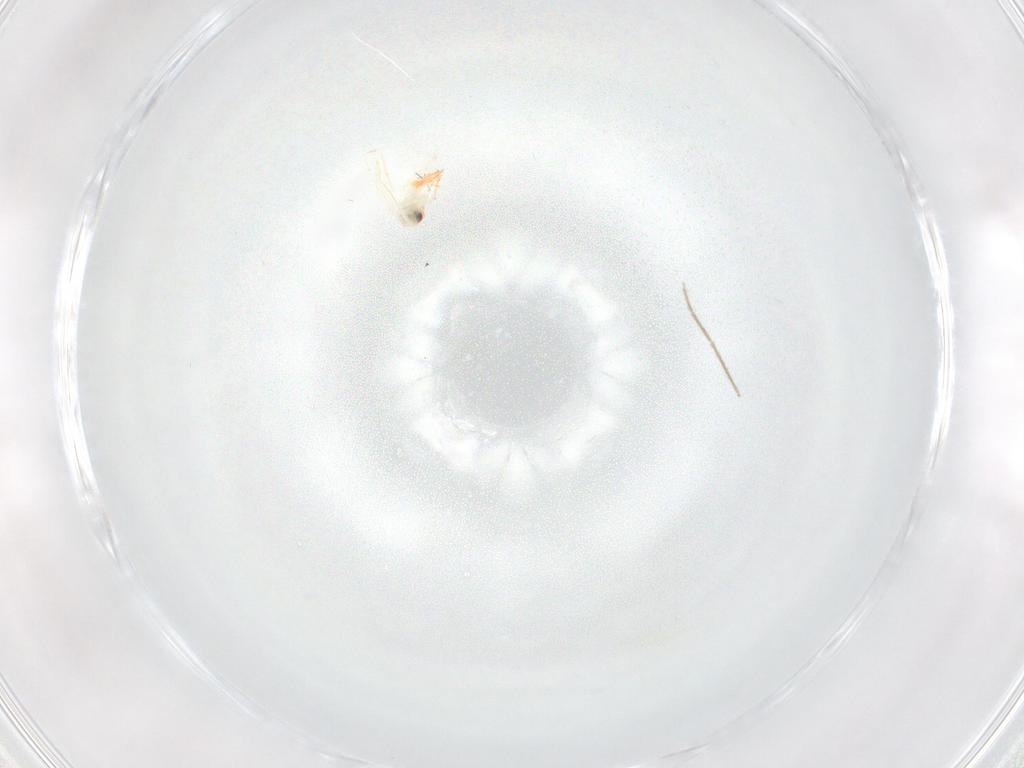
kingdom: Animalia
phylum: Arthropoda
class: Insecta
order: Hemiptera
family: Aleyrodidae
